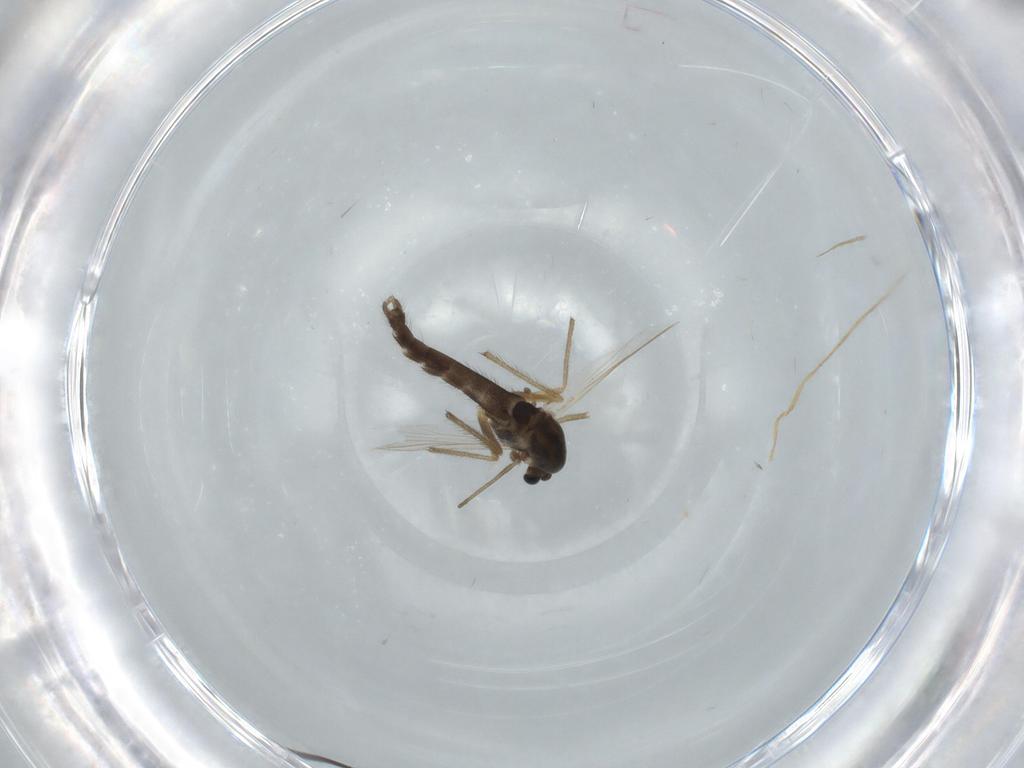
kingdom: Animalia
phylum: Arthropoda
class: Insecta
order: Diptera
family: Chironomidae
